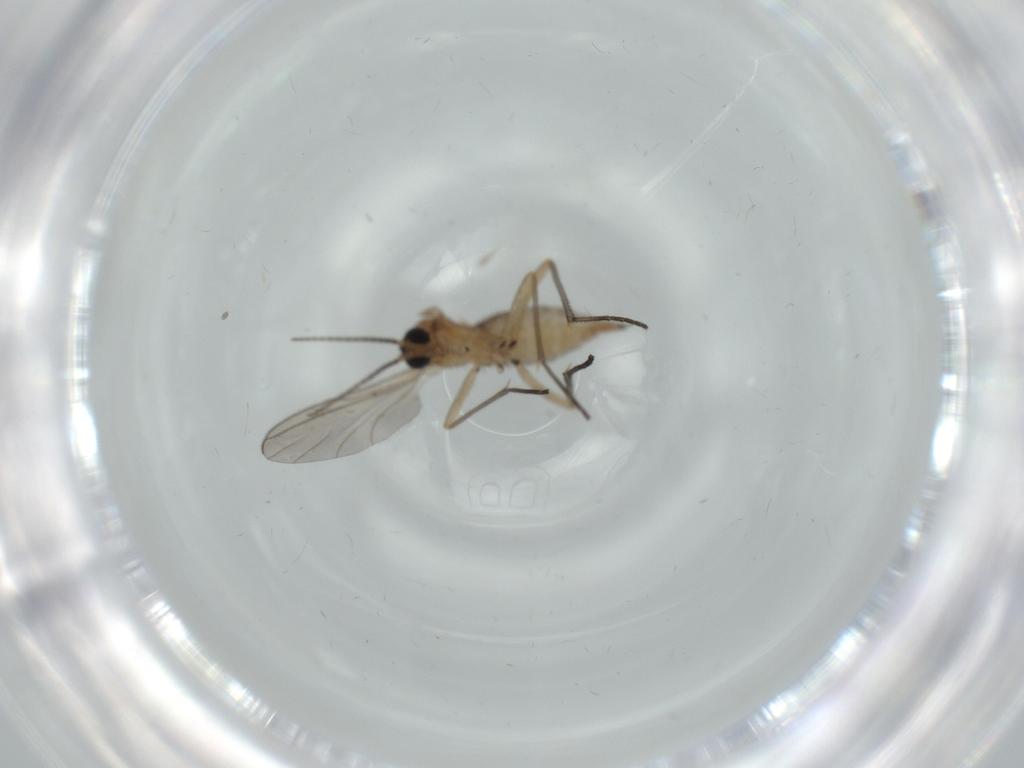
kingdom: Animalia
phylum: Arthropoda
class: Insecta
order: Diptera
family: Sciaridae
